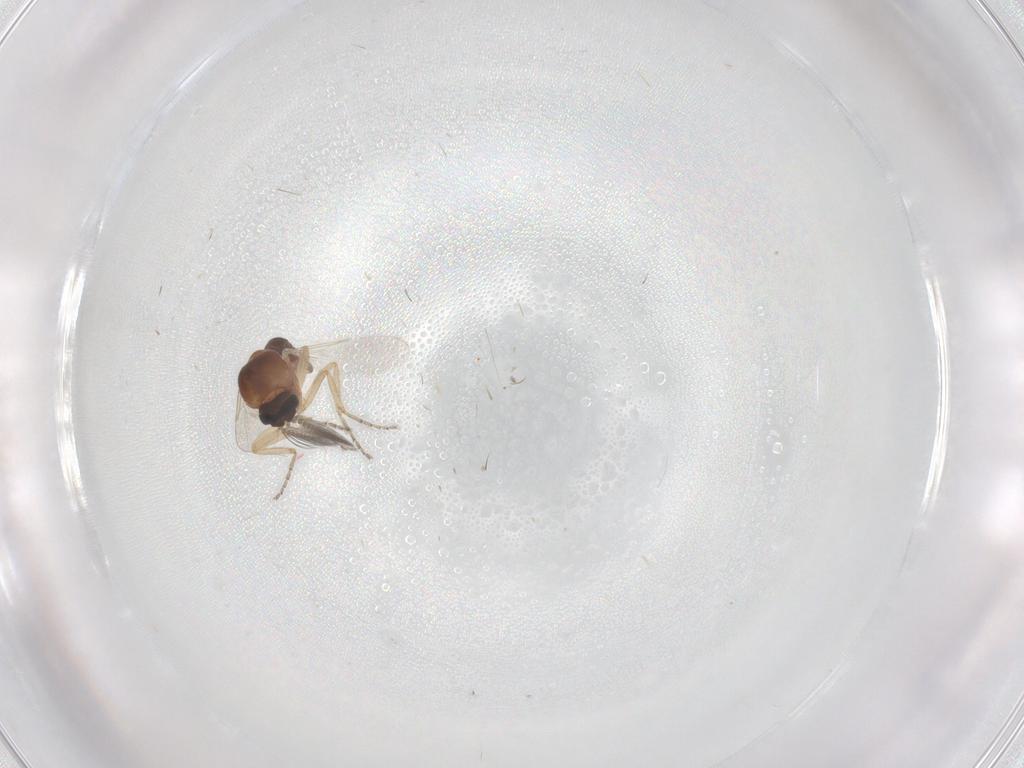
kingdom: Animalia
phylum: Arthropoda
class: Insecta
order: Diptera
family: Ceratopogonidae
